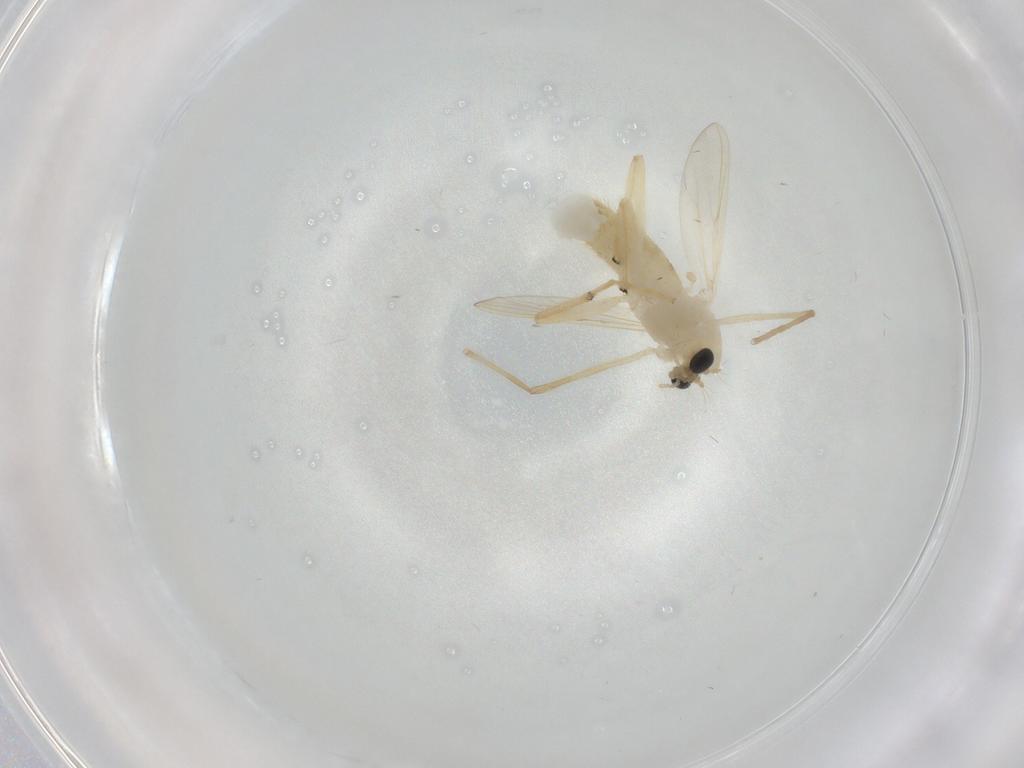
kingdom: Animalia
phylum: Arthropoda
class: Insecta
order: Diptera
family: Chironomidae
